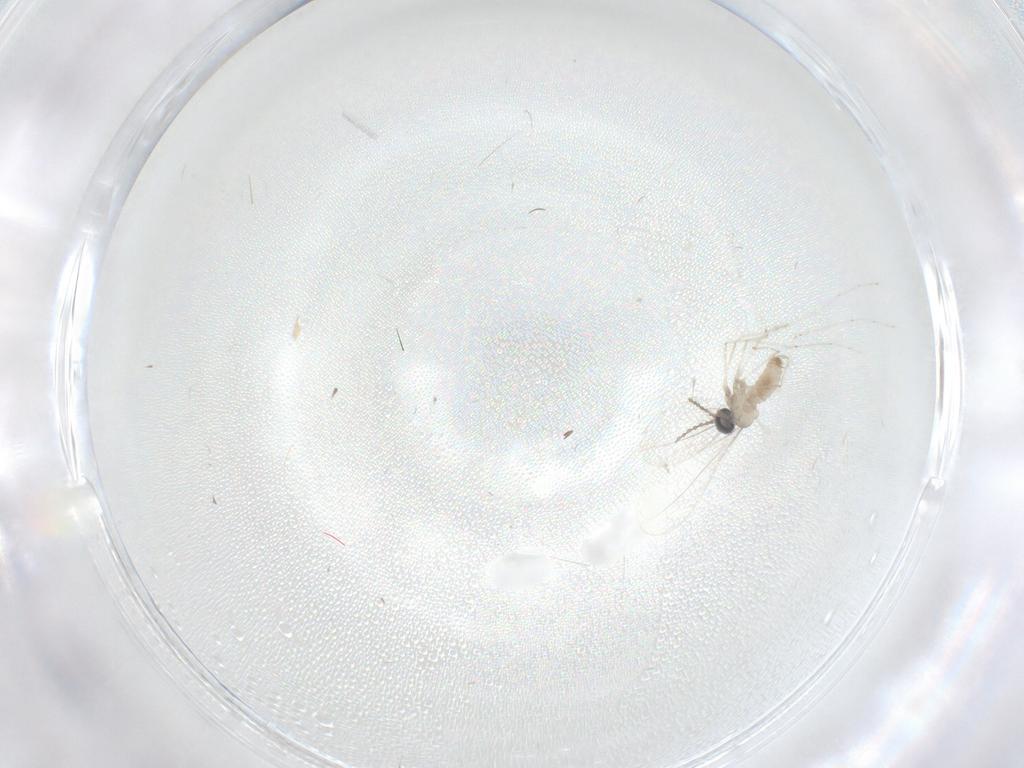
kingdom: Animalia
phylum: Arthropoda
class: Insecta
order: Diptera
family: Cecidomyiidae
